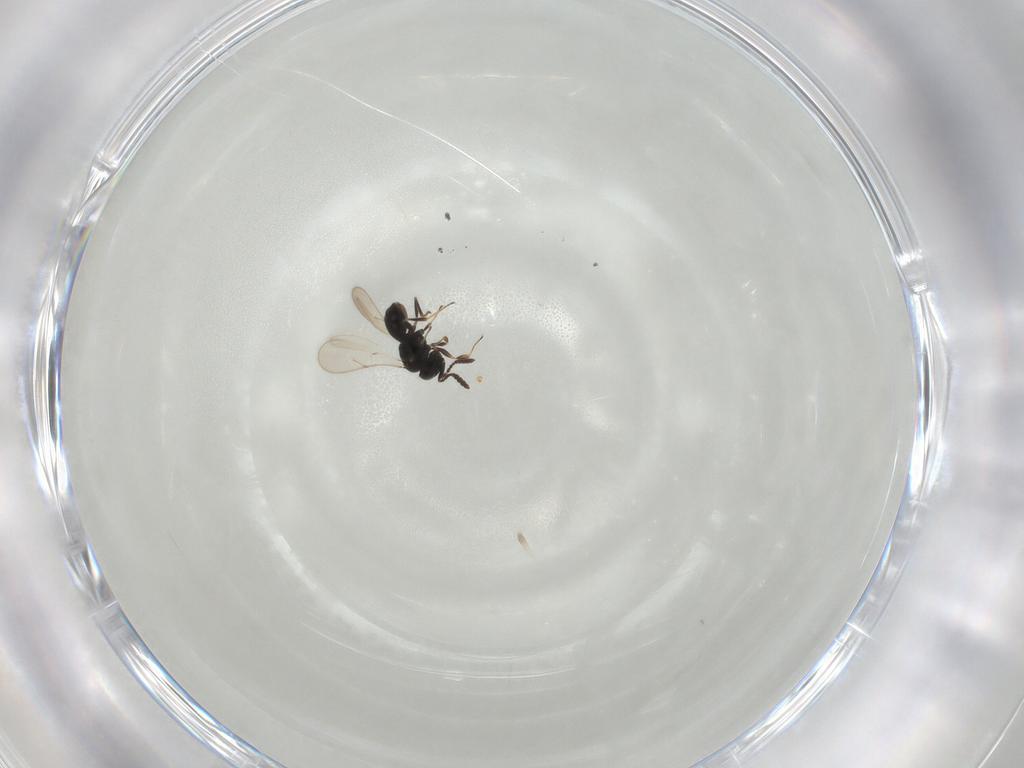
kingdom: Animalia
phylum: Arthropoda
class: Insecta
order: Hymenoptera
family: Scelionidae
